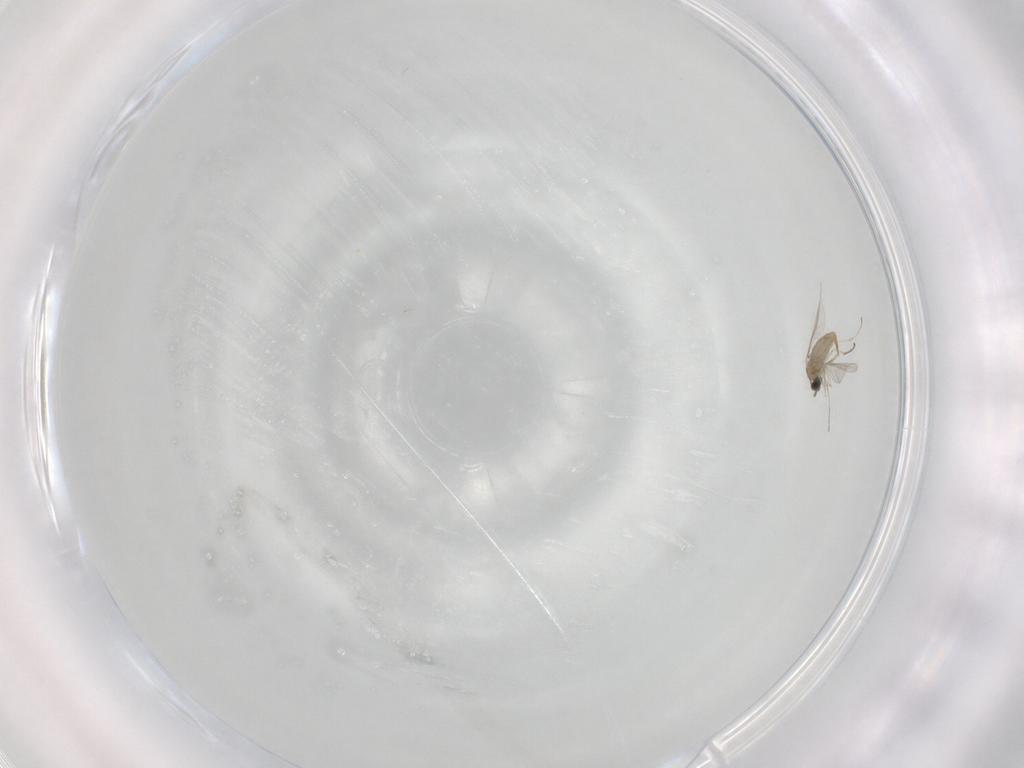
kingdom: Animalia
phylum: Arthropoda
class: Insecta
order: Diptera
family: Cecidomyiidae
